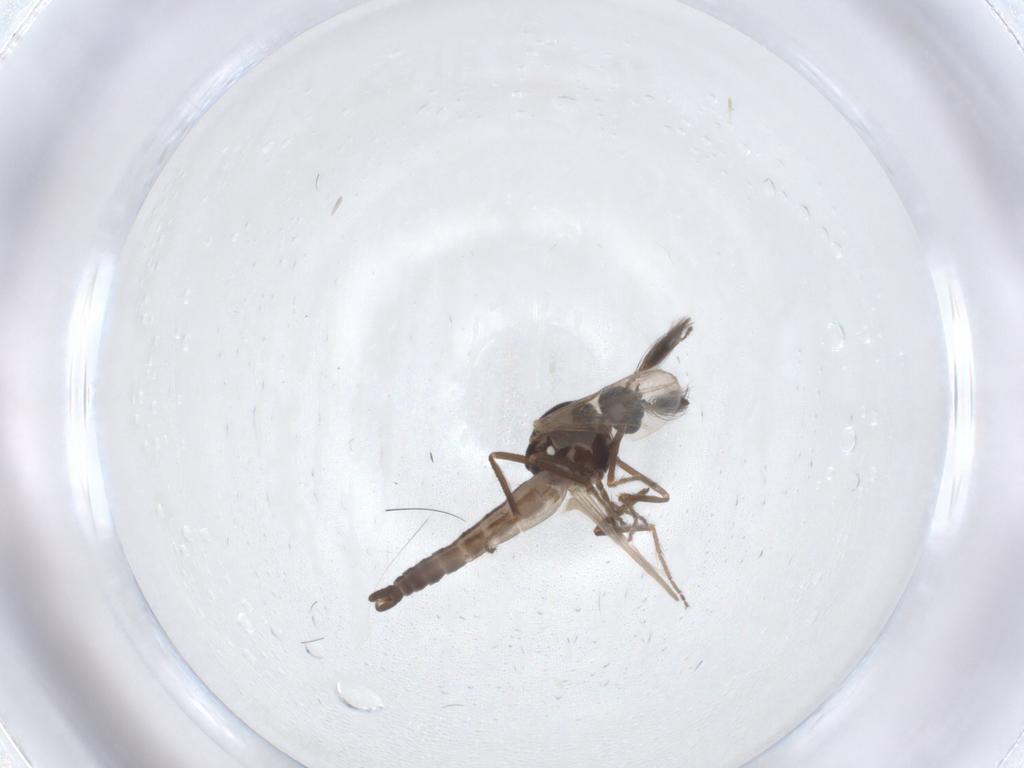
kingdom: Animalia
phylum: Arthropoda
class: Insecta
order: Diptera
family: Ceratopogonidae
